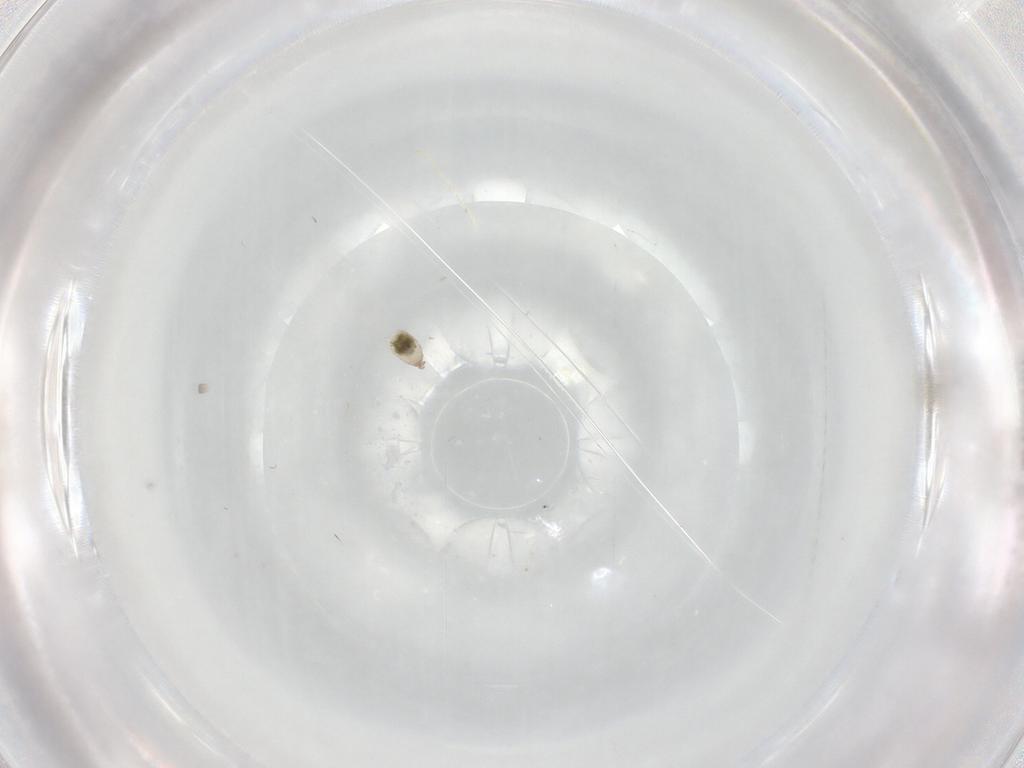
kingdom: Animalia
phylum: Arthropoda
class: Insecta
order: Diptera
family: Cecidomyiidae
